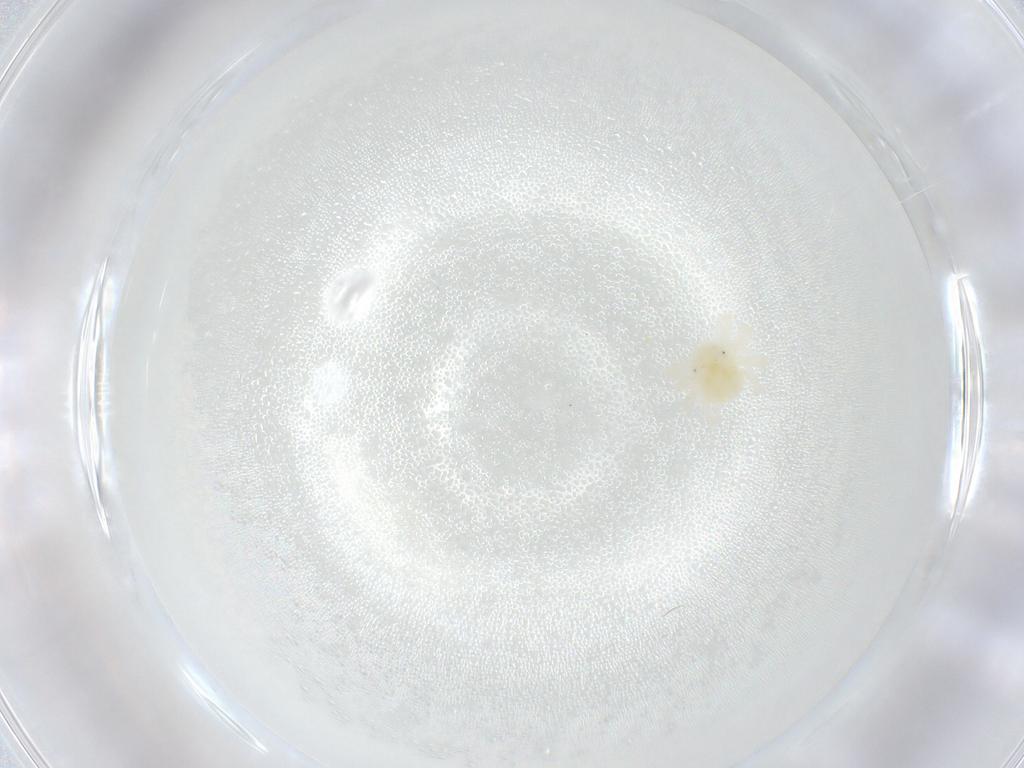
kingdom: Animalia
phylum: Arthropoda
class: Arachnida
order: Trombidiformes
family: Anystidae
